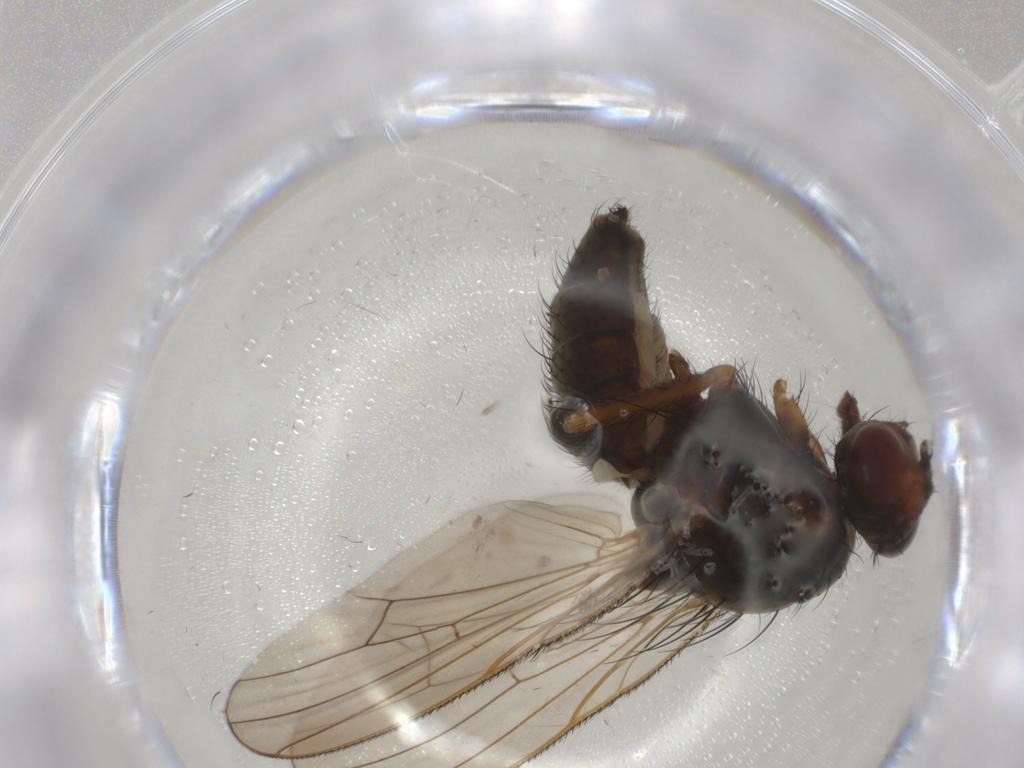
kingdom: Animalia
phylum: Arthropoda
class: Insecta
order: Diptera
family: Anthomyiidae
